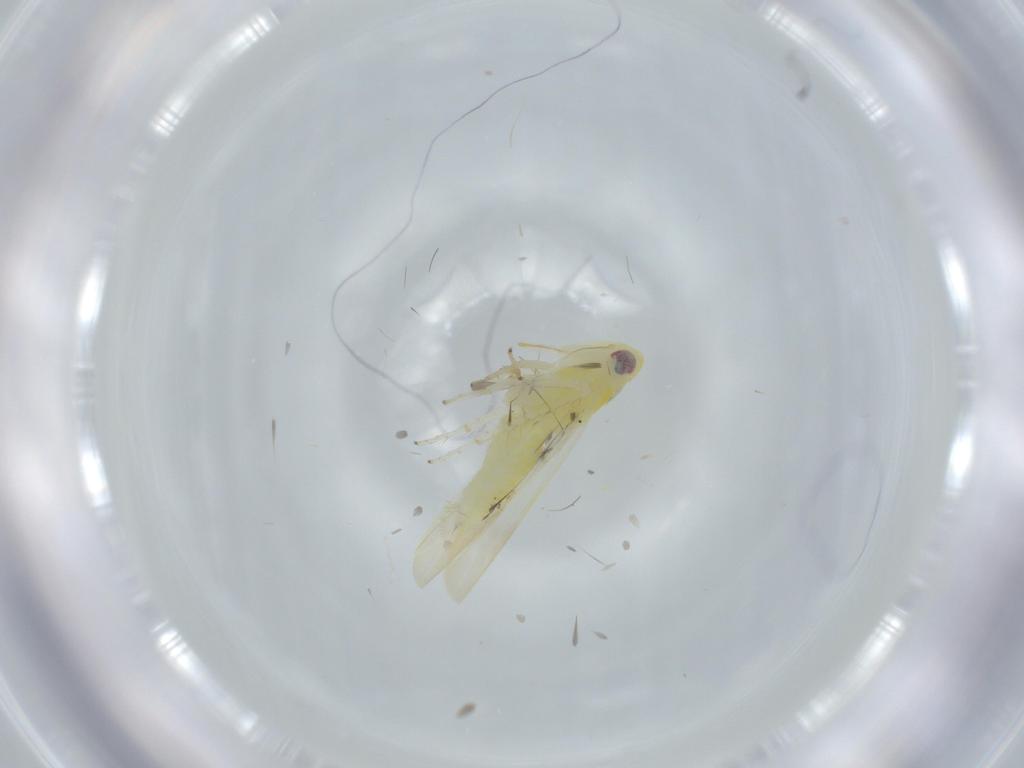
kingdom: Animalia
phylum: Arthropoda
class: Insecta
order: Hemiptera
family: Cicadellidae
